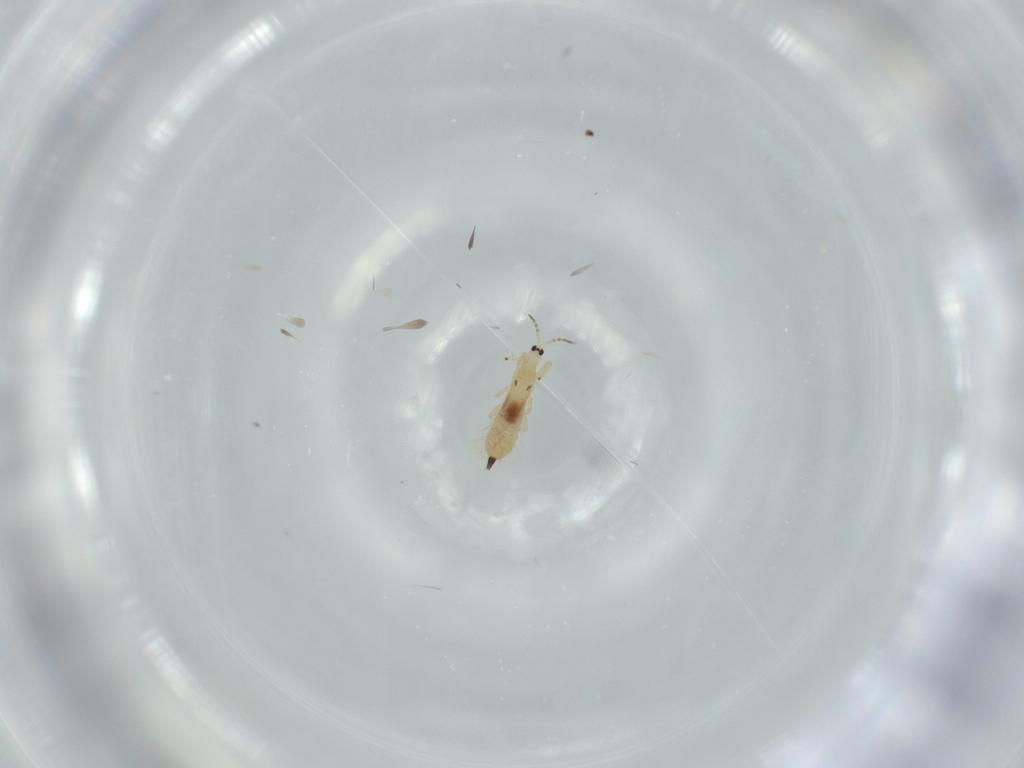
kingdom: Animalia
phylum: Arthropoda
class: Insecta
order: Thysanoptera
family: Phlaeothripidae
